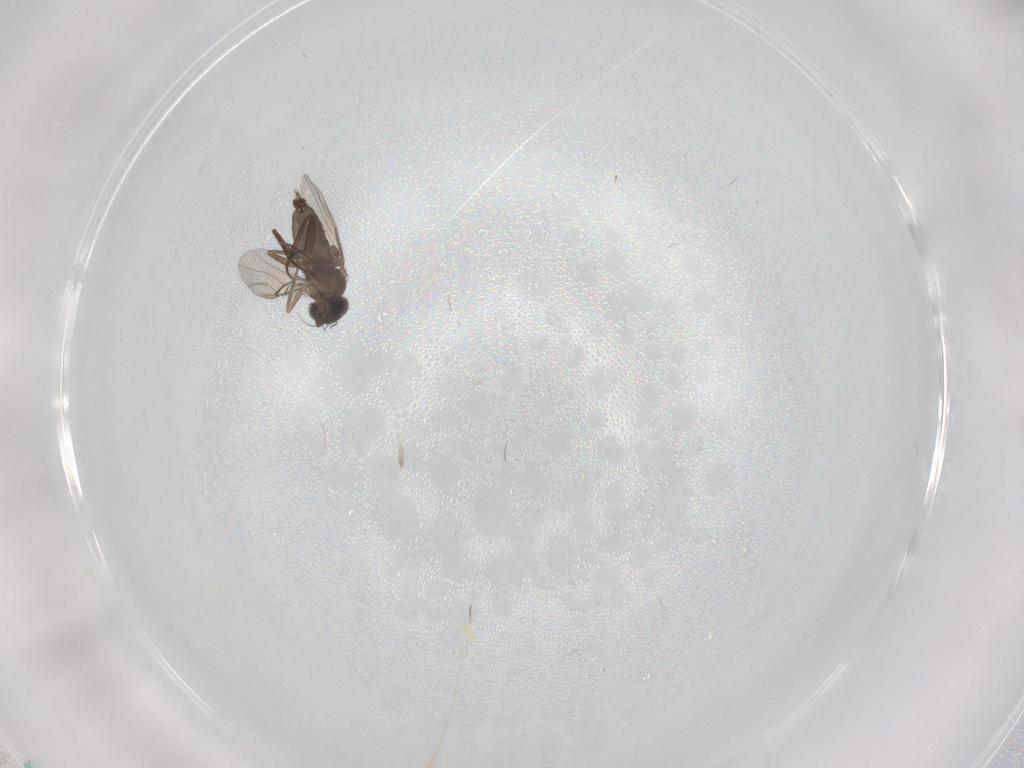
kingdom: Animalia
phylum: Arthropoda
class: Insecta
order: Diptera
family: Phoridae
